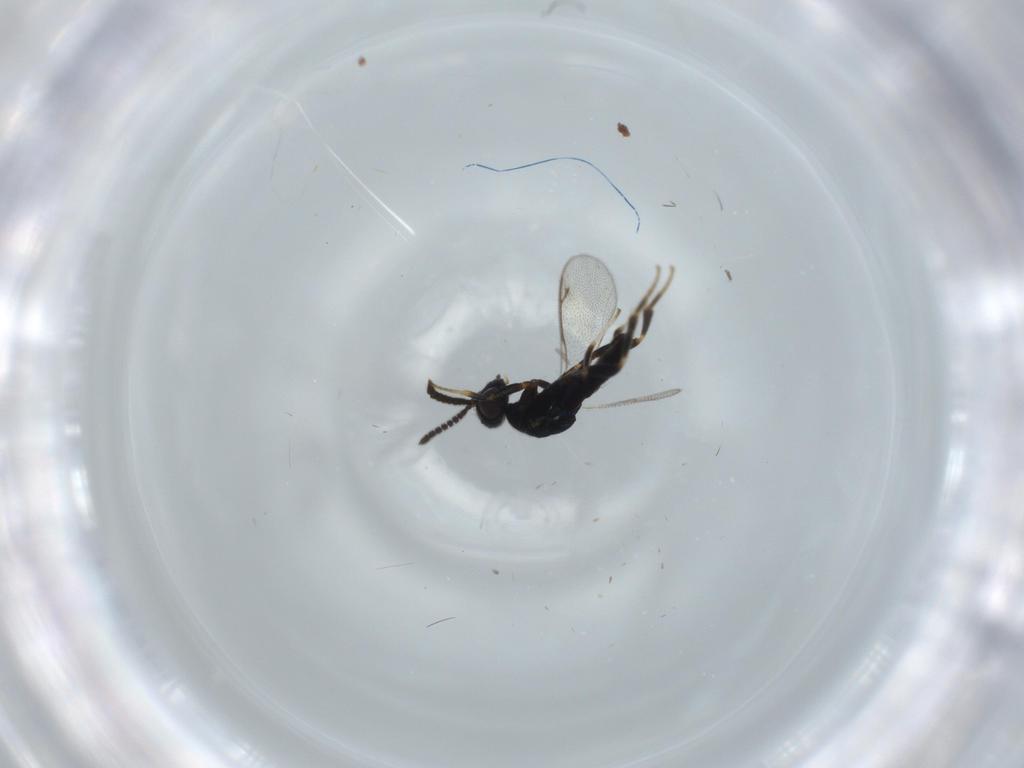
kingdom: Animalia
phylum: Arthropoda
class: Insecta
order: Hymenoptera
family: Cleonyminae
